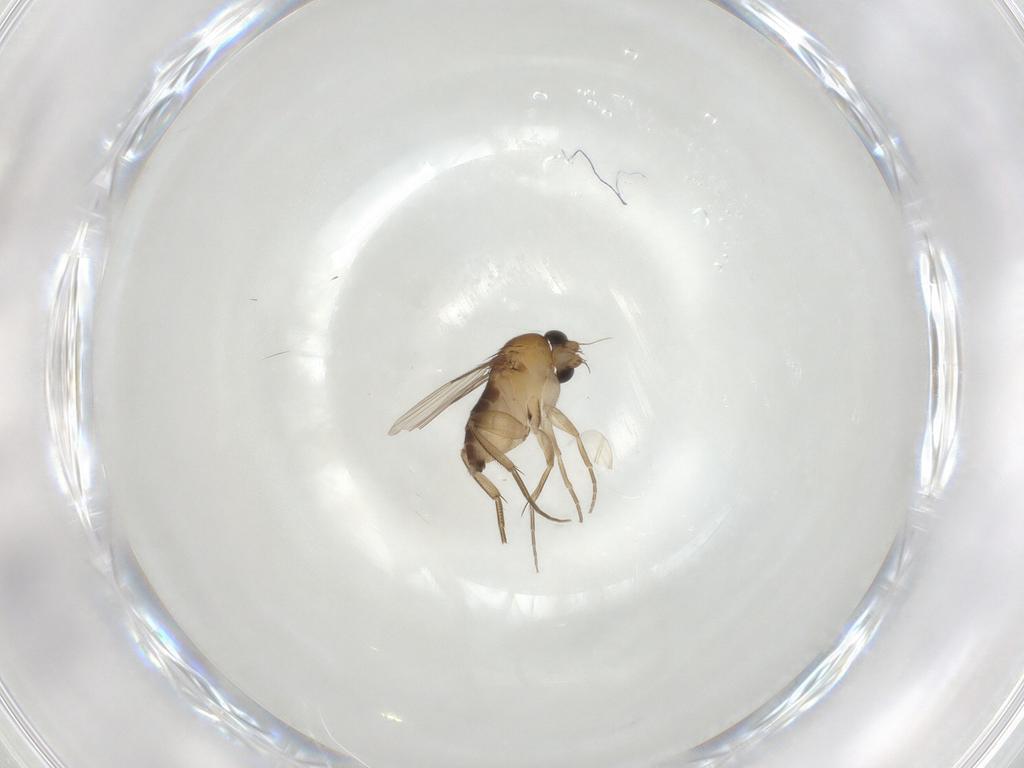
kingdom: Animalia
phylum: Arthropoda
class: Insecta
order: Diptera
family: Phoridae
